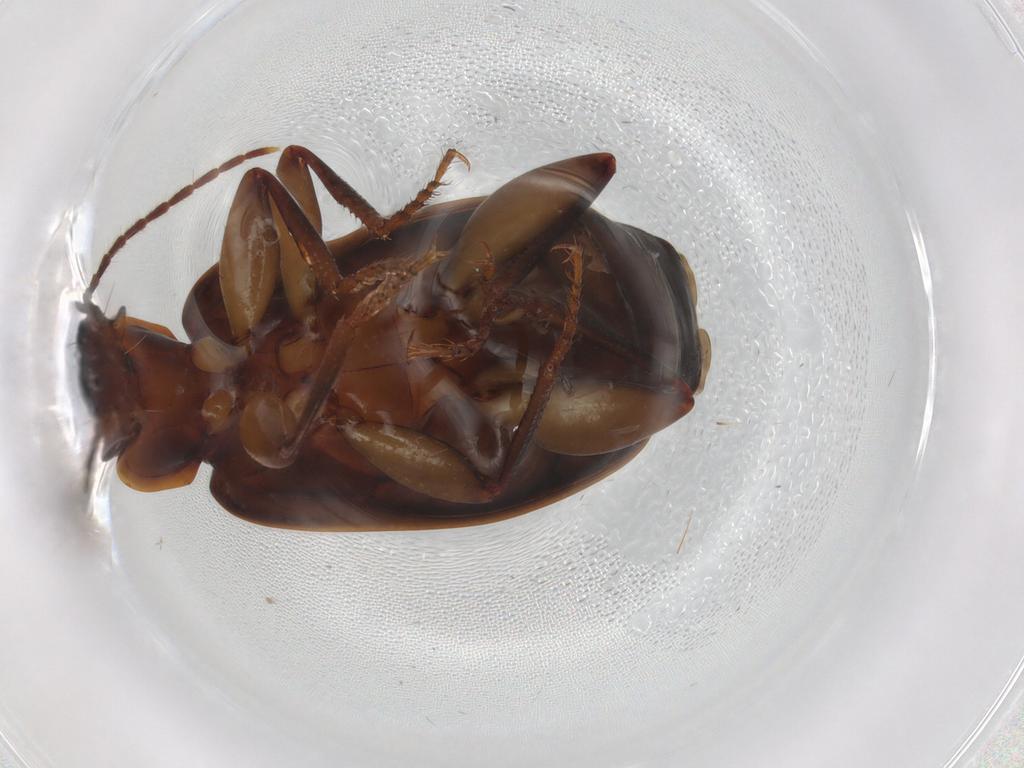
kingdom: Animalia
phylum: Arthropoda
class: Insecta
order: Coleoptera
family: Carabidae
